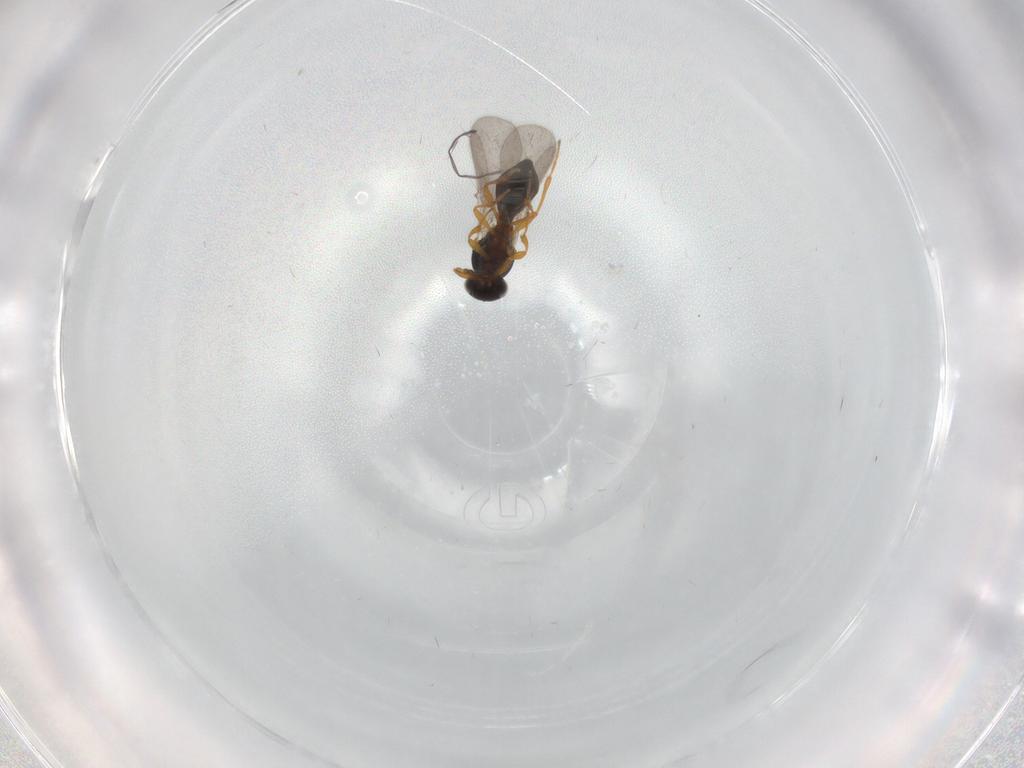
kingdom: Animalia
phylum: Arthropoda
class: Insecta
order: Hymenoptera
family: Platygastridae
